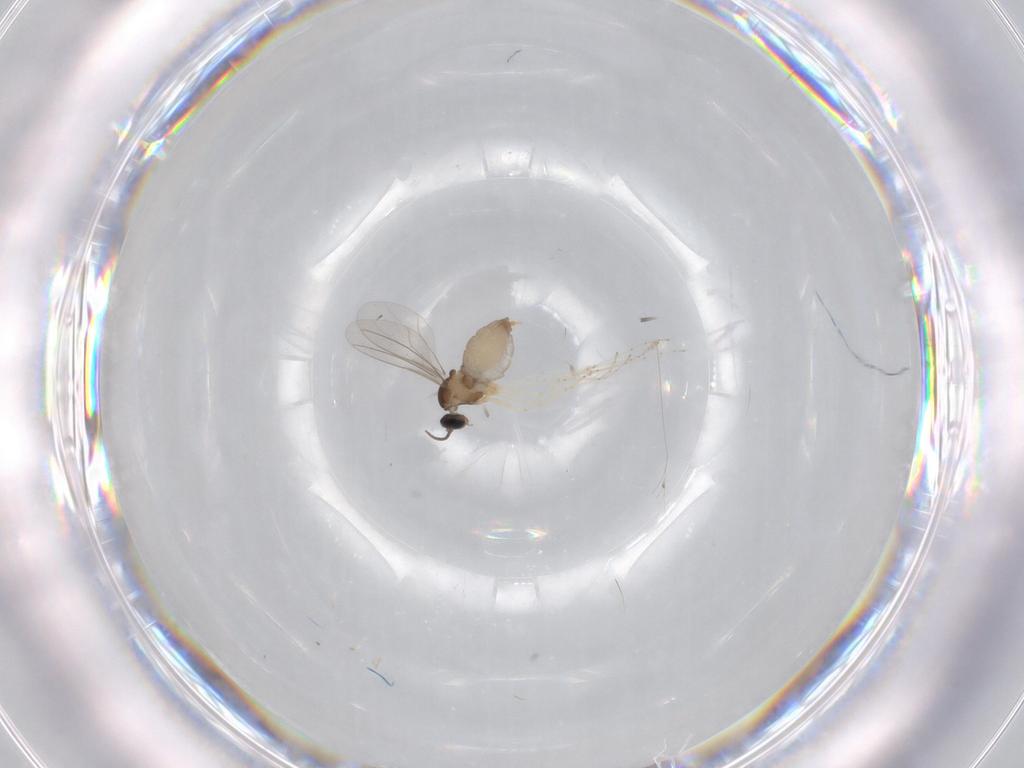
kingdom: Animalia
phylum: Arthropoda
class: Insecta
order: Diptera
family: Cecidomyiidae
